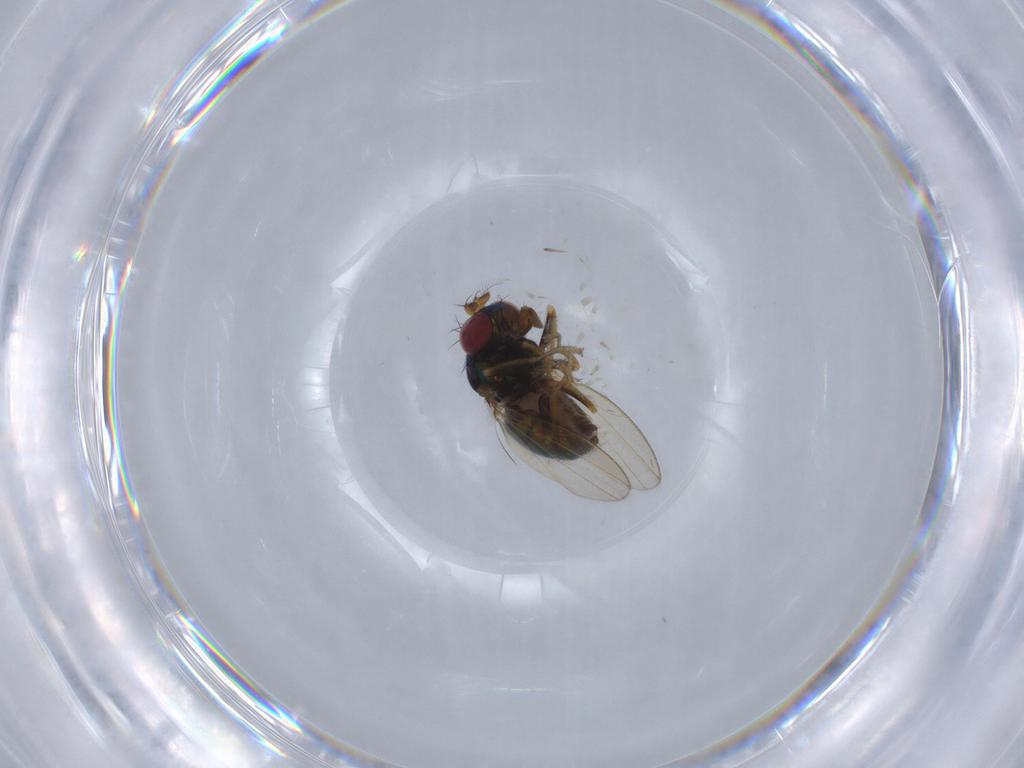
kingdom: Animalia
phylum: Arthropoda
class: Insecta
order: Diptera
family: Ephydridae
